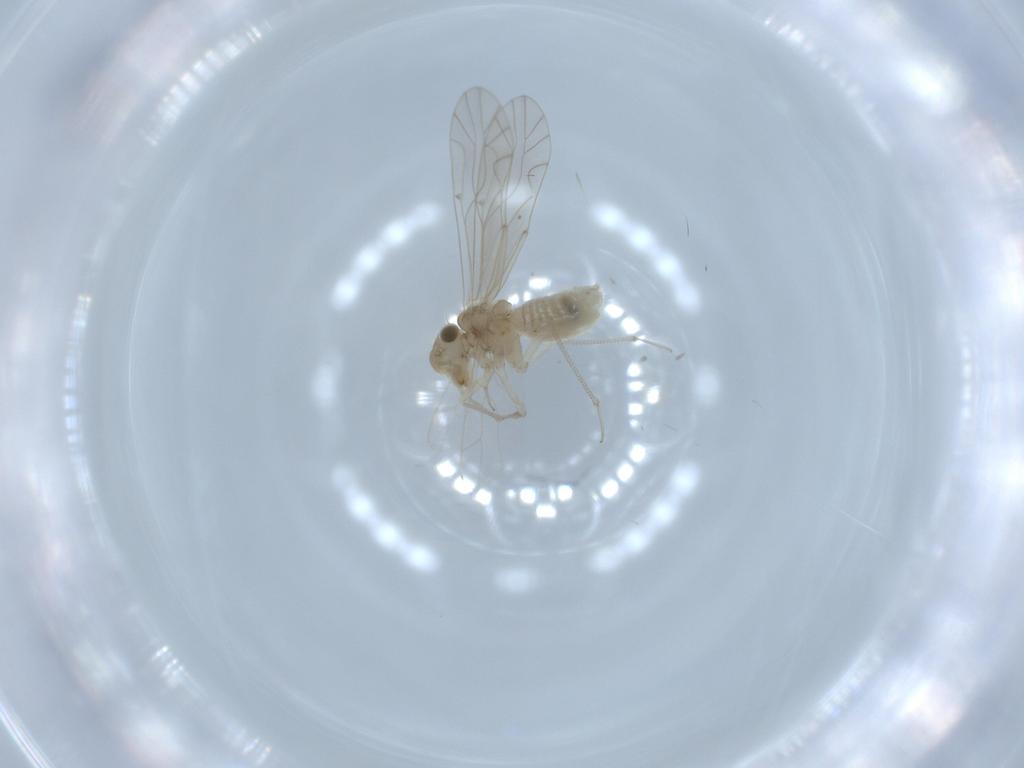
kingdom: Animalia
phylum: Arthropoda
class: Insecta
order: Psocodea
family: Lachesillidae
